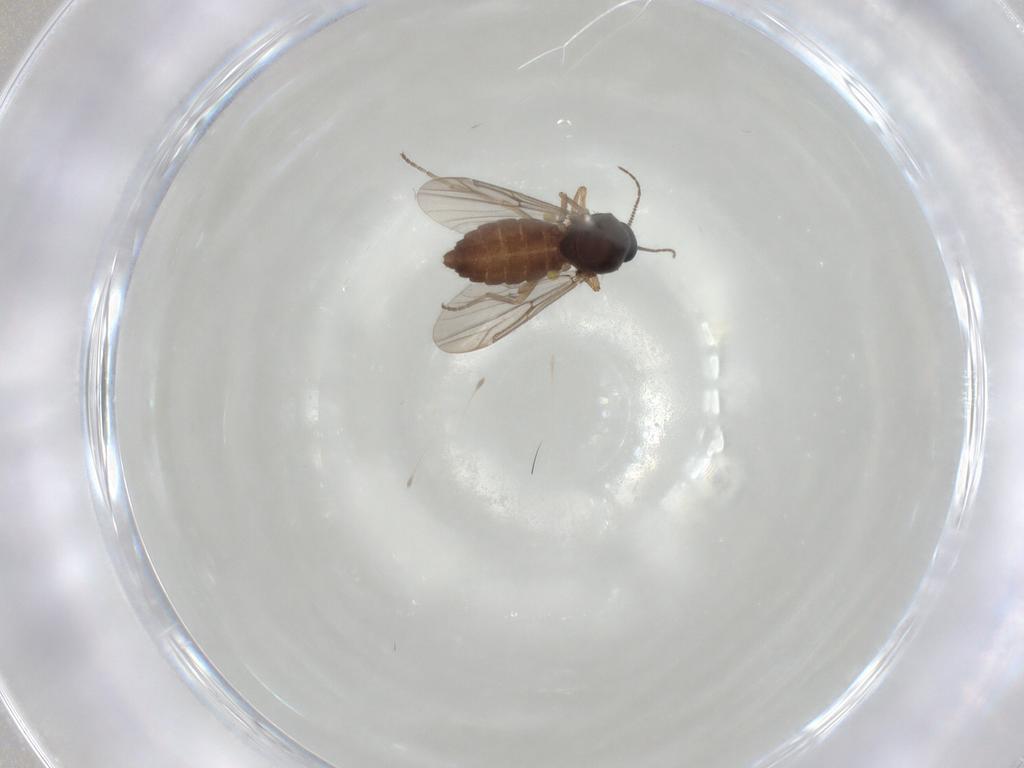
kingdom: Animalia
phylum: Arthropoda
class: Insecta
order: Diptera
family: Ceratopogonidae
